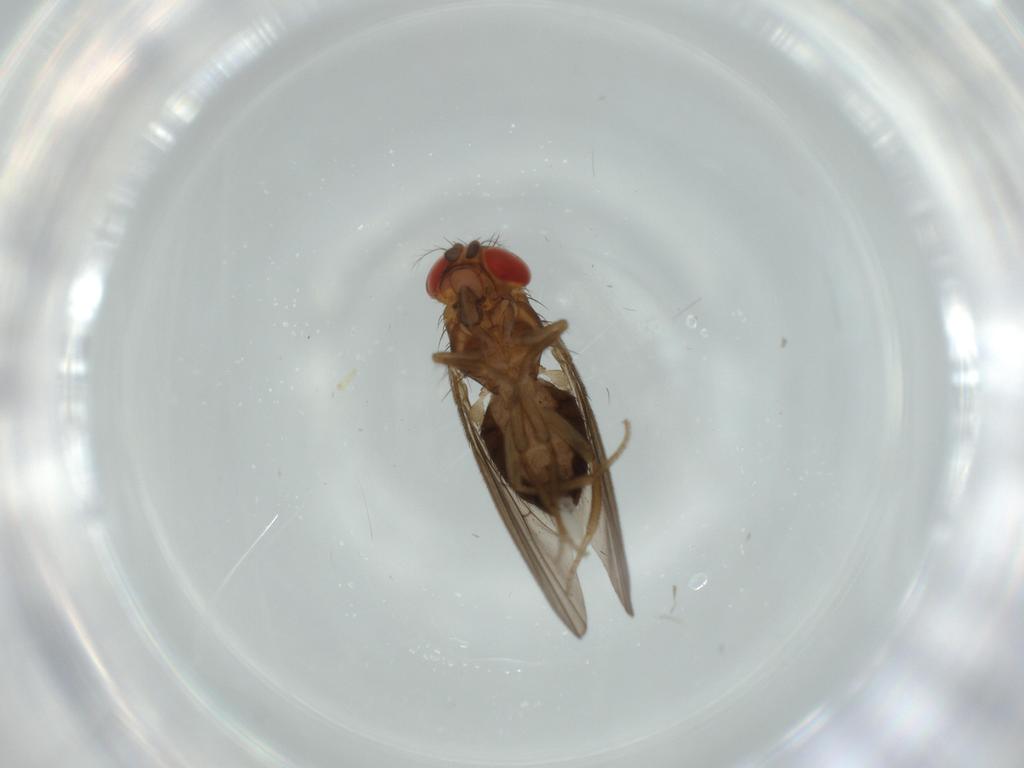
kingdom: Animalia
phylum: Arthropoda
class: Insecta
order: Diptera
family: Drosophilidae
